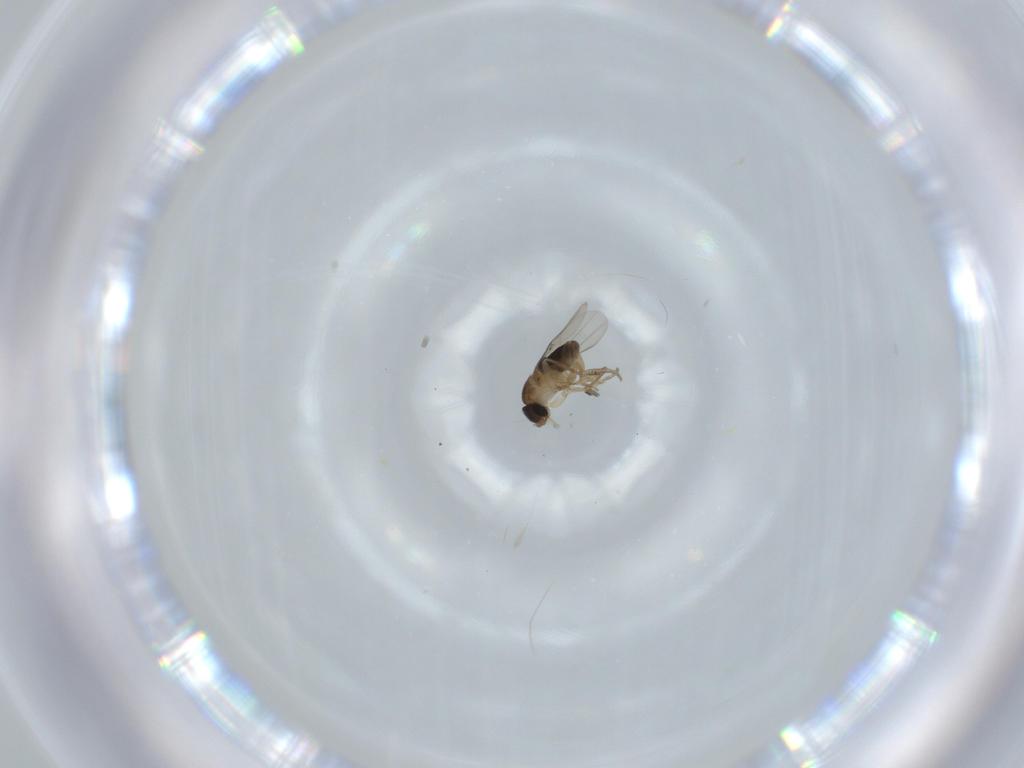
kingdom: Animalia
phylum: Arthropoda
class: Insecta
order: Diptera
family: Phoridae
